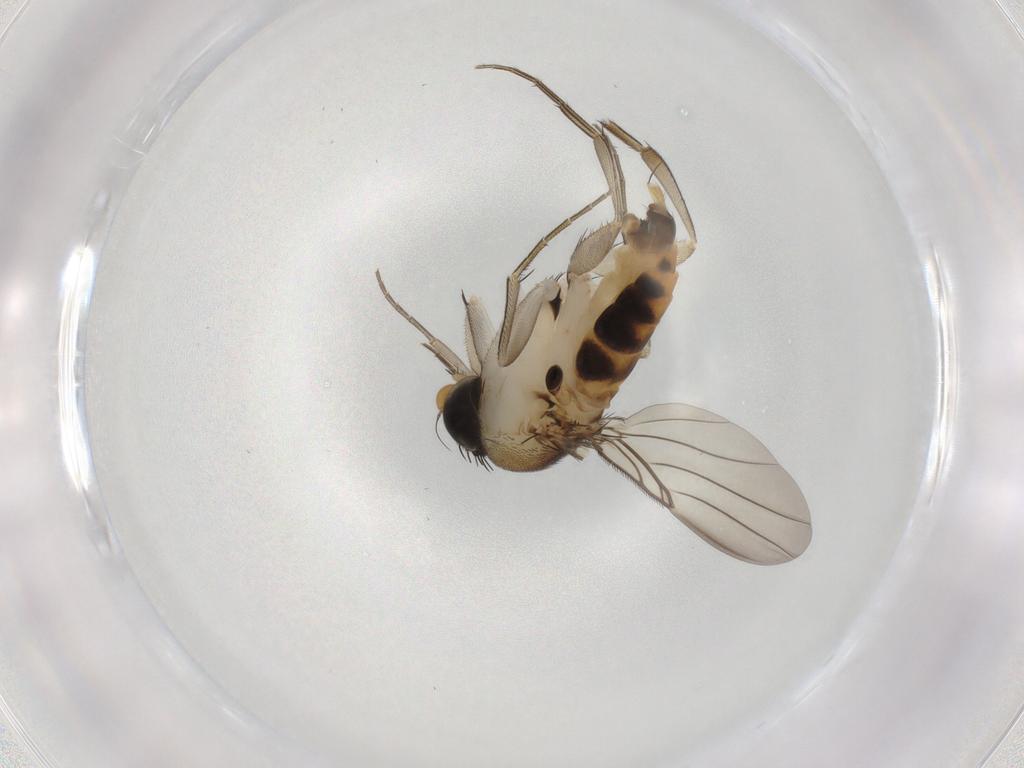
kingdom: Animalia
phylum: Arthropoda
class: Insecta
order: Diptera
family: Phoridae
